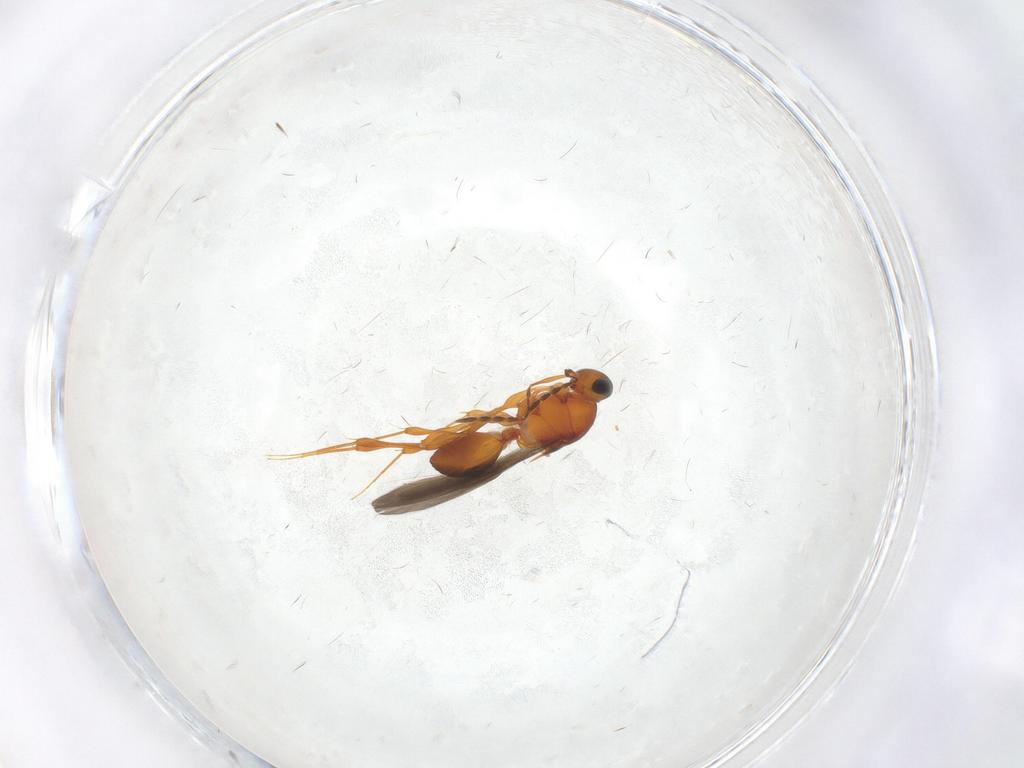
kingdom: Animalia
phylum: Arthropoda
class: Insecta
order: Hymenoptera
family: Platygastridae
